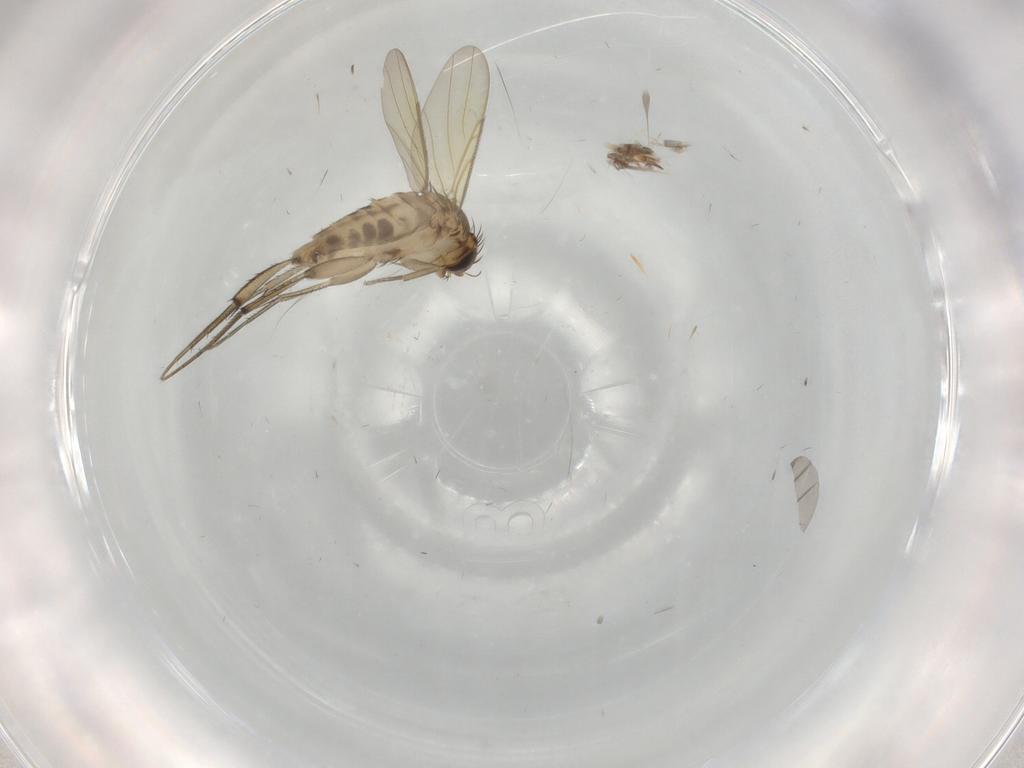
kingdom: Animalia
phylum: Arthropoda
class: Insecta
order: Diptera
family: Phoridae
